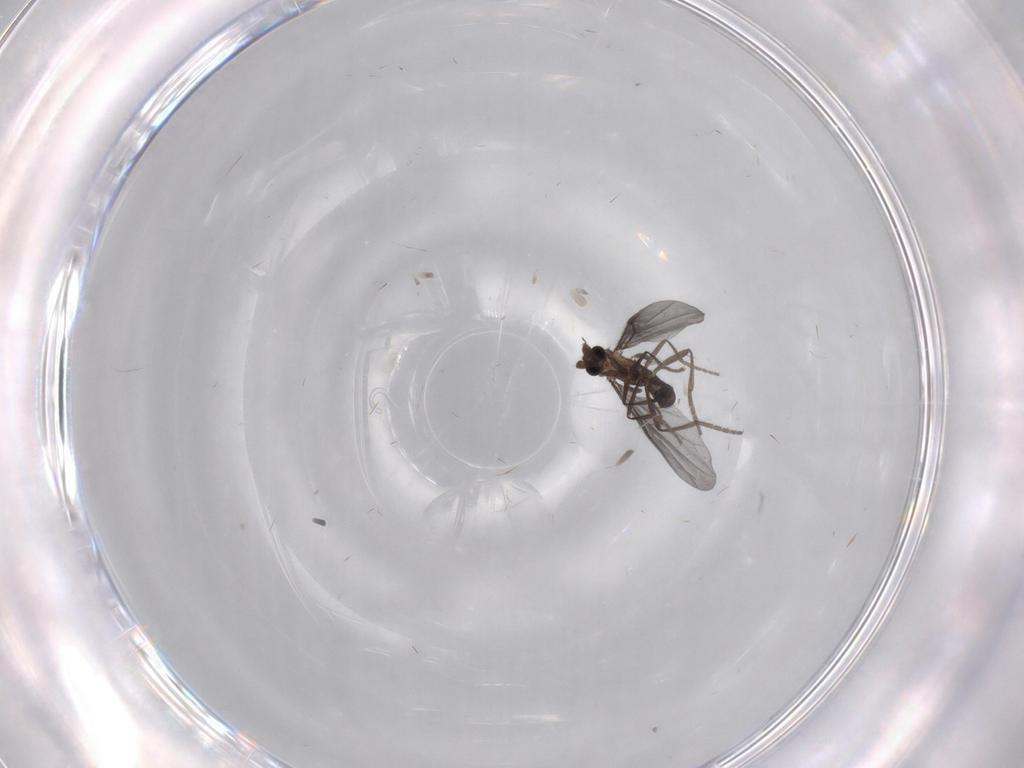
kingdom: Animalia
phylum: Arthropoda
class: Insecta
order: Diptera
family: Phoridae
